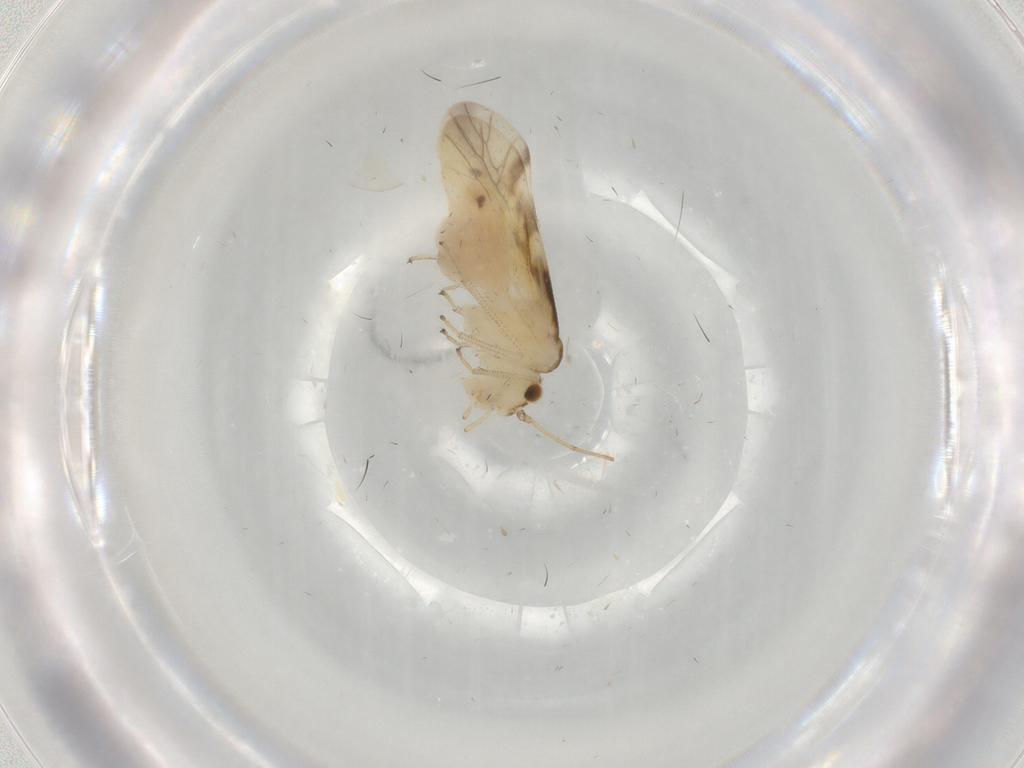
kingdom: Animalia
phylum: Arthropoda
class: Insecta
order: Psocodea
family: Caeciliusidae
